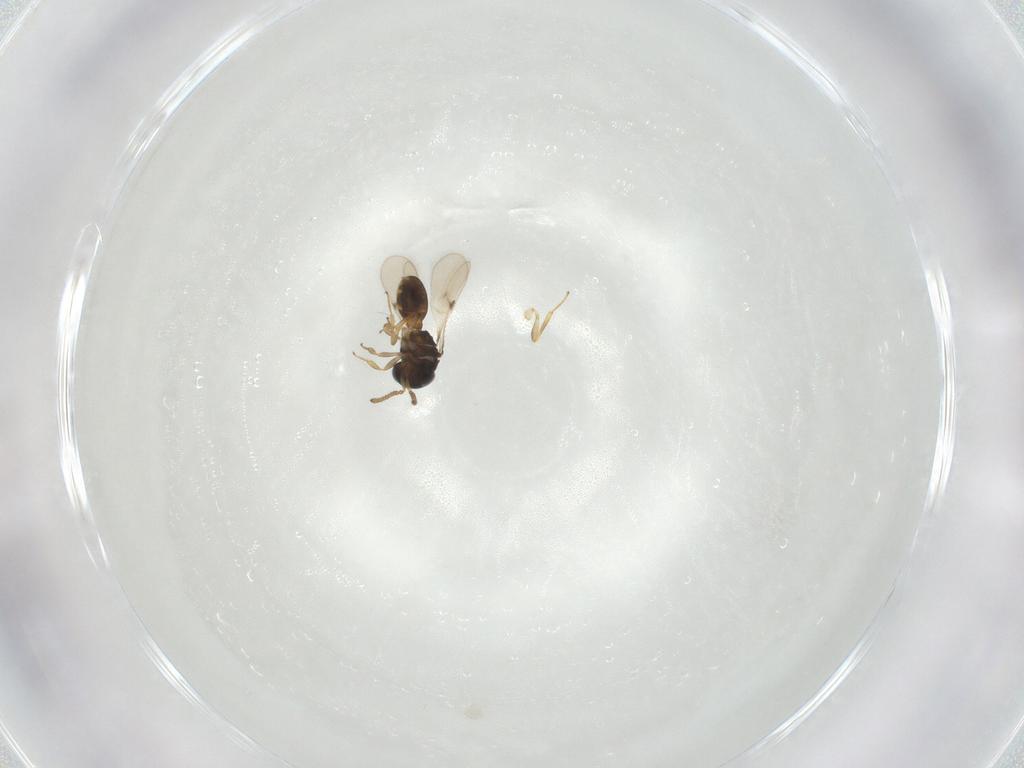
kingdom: Animalia
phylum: Arthropoda
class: Insecta
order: Hymenoptera
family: Scelionidae
